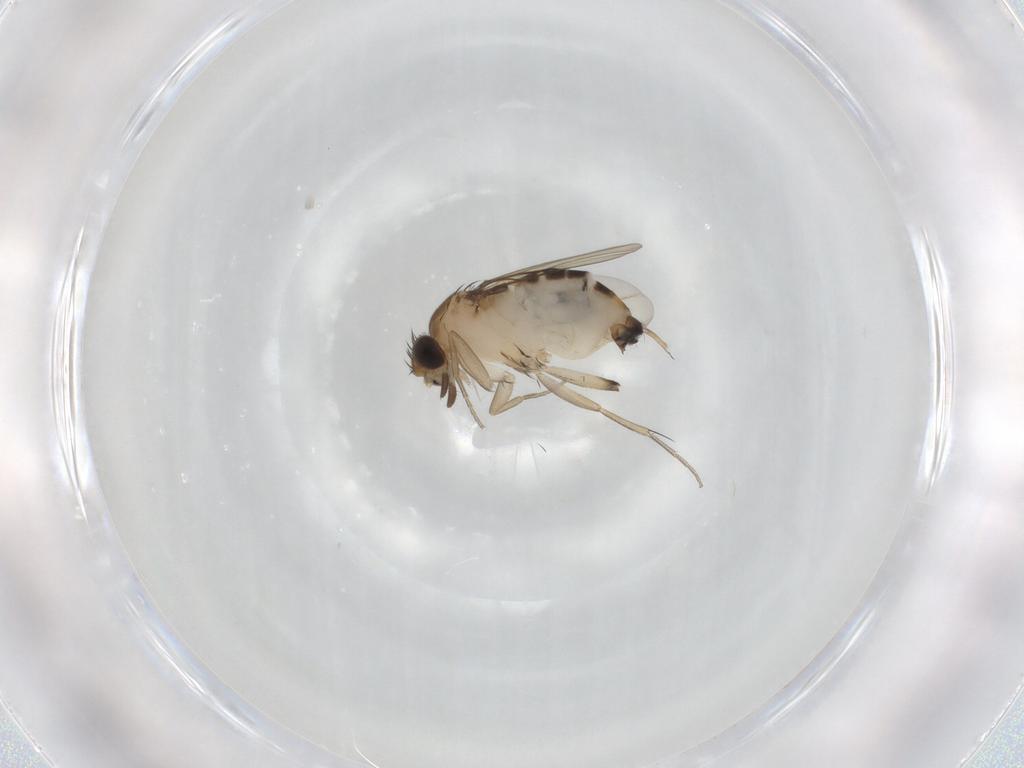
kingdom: Animalia
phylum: Arthropoda
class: Insecta
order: Diptera
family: Phoridae
